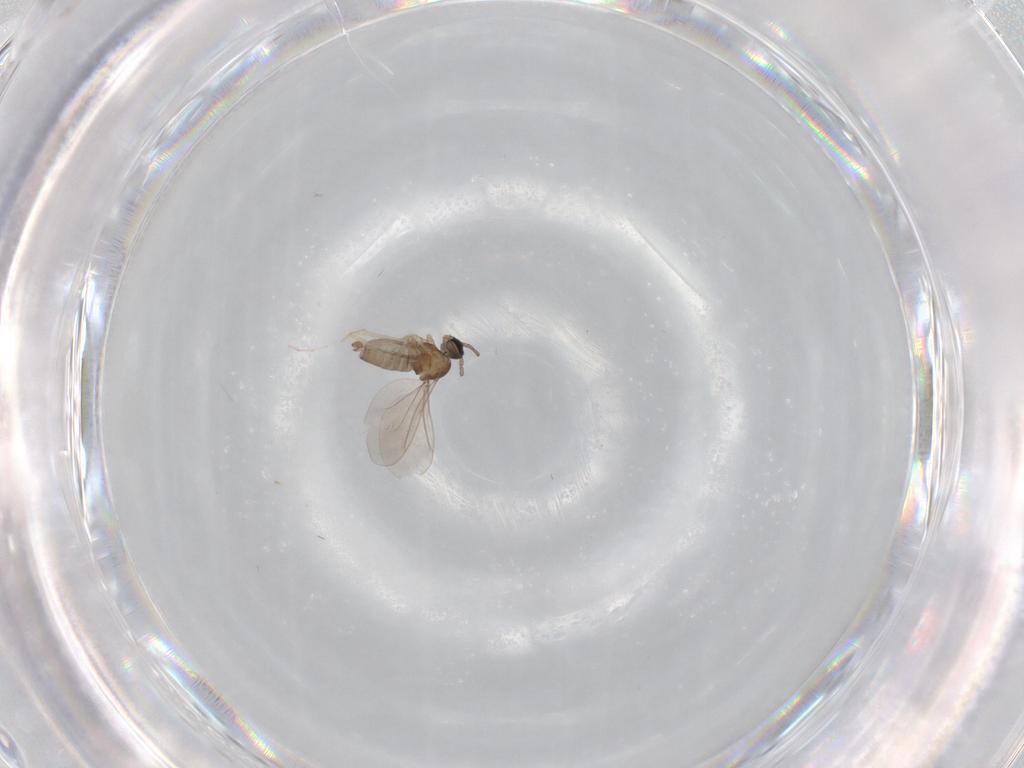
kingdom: Animalia
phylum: Arthropoda
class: Insecta
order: Diptera
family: Cecidomyiidae
